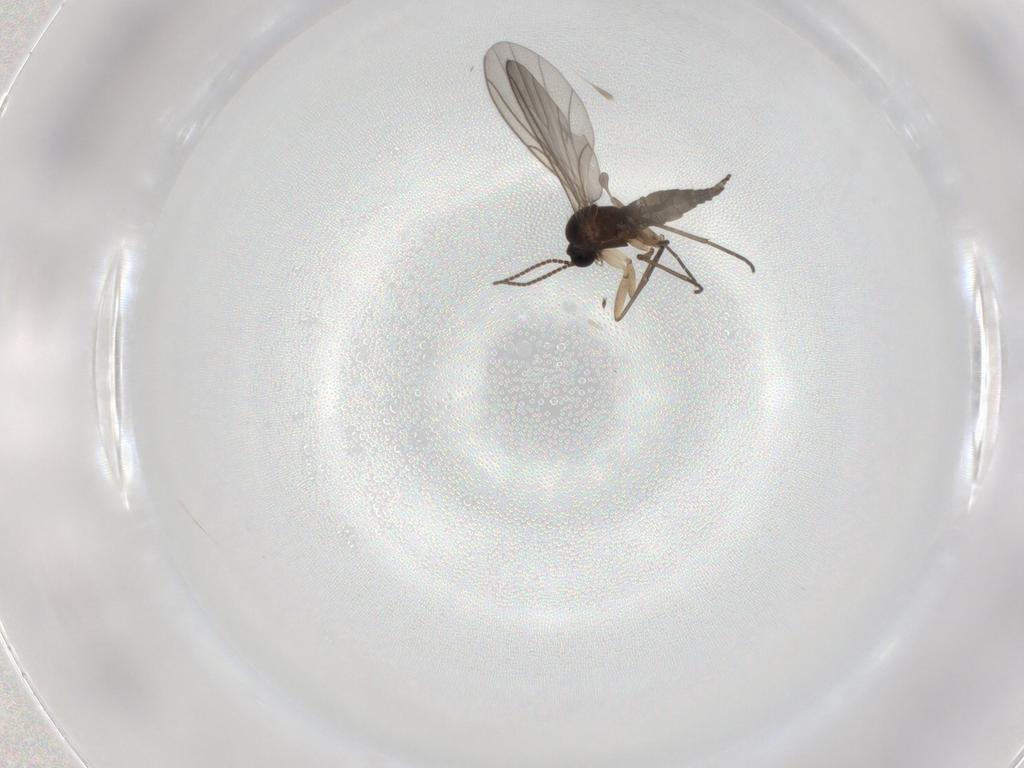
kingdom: Animalia
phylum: Arthropoda
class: Insecta
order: Diptera
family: Sciaridae
